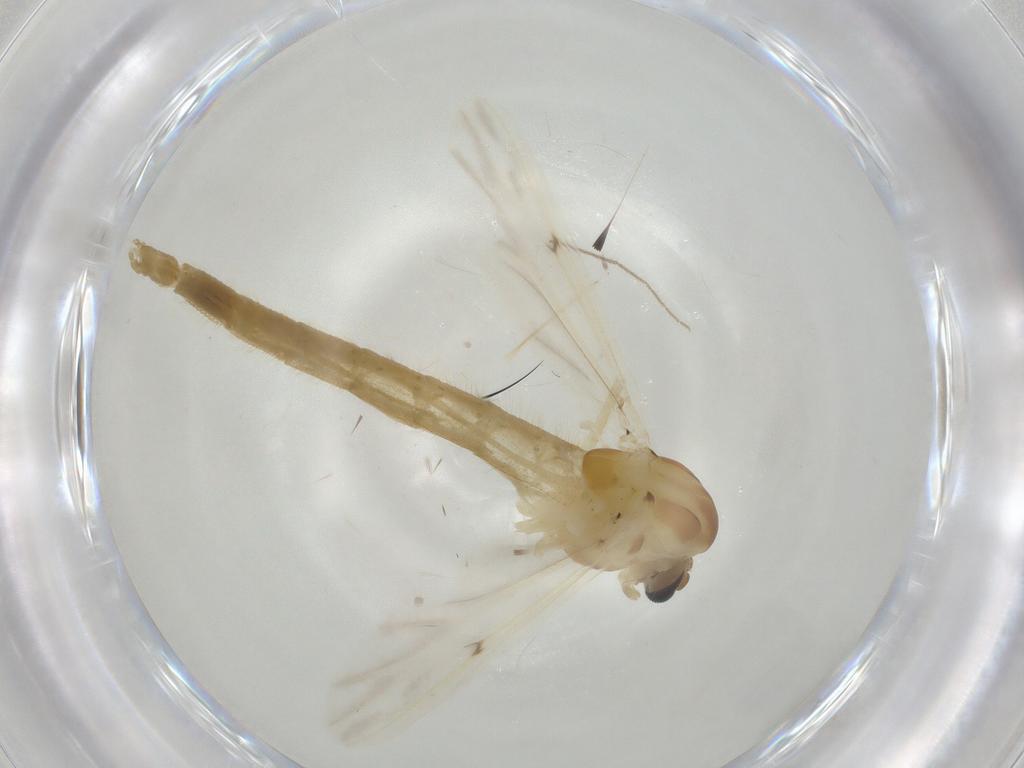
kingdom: Animalia
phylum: Arthropoda
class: Insecta
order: Diptera
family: Chironomidae
